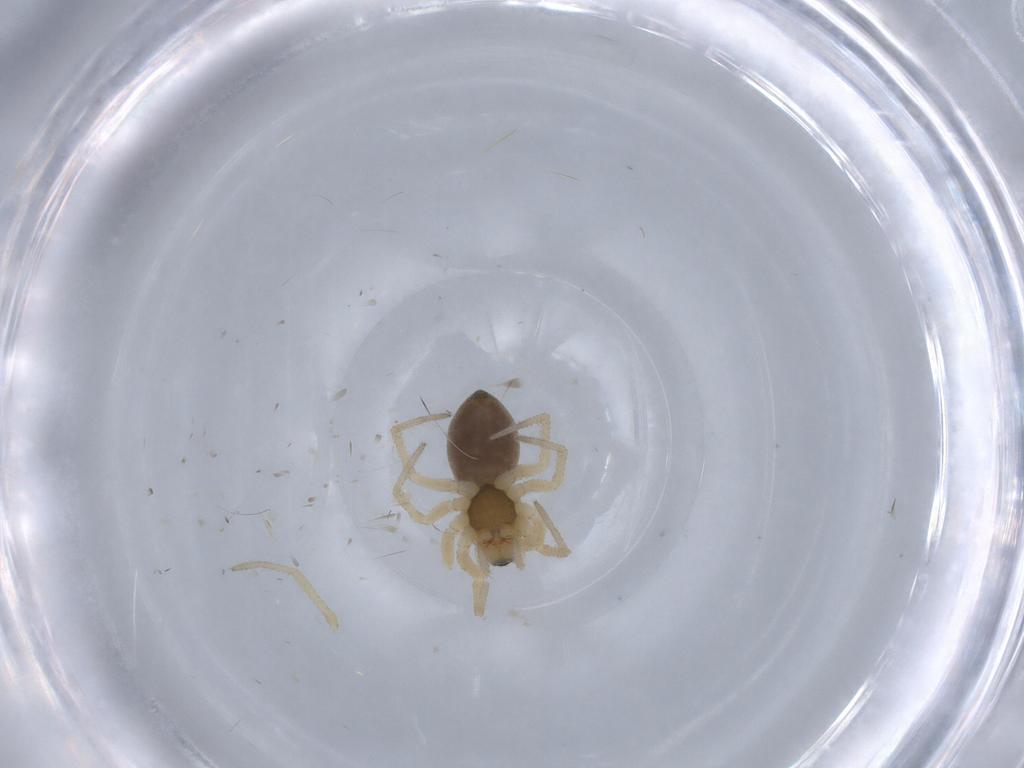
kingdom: Animalia
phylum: Arthropoda
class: Arachnida
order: Araneae
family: Linyphiidae
